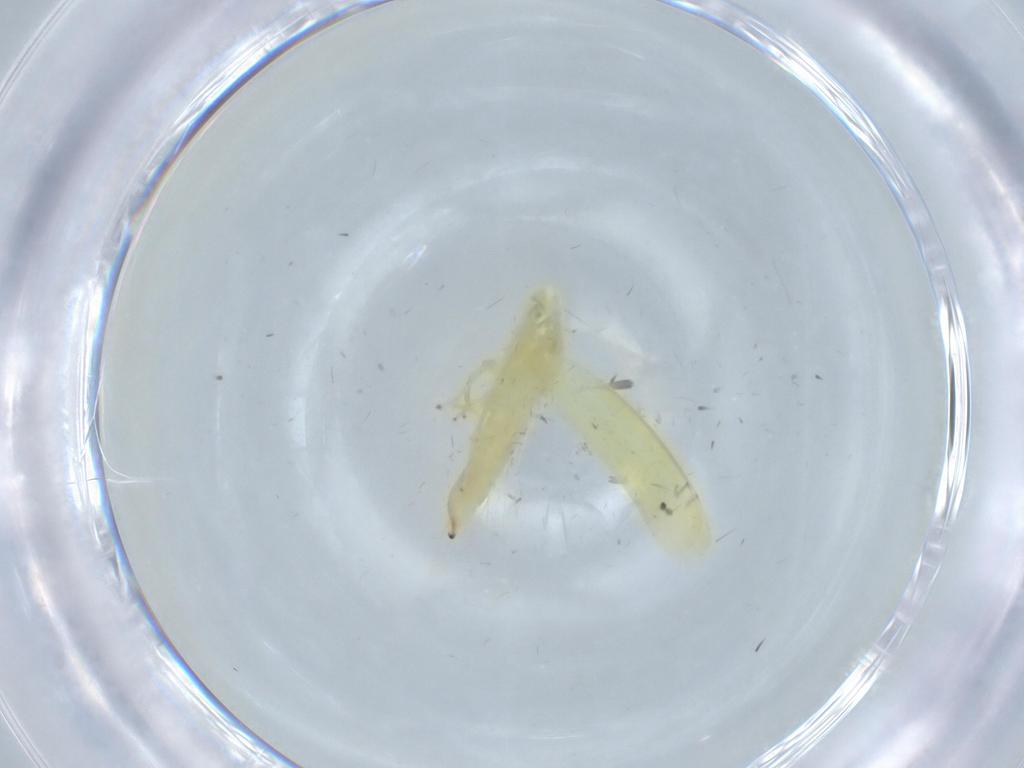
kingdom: Animalia
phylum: Arthropoda
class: Insecta
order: Hemiptera
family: Cicadellidae
